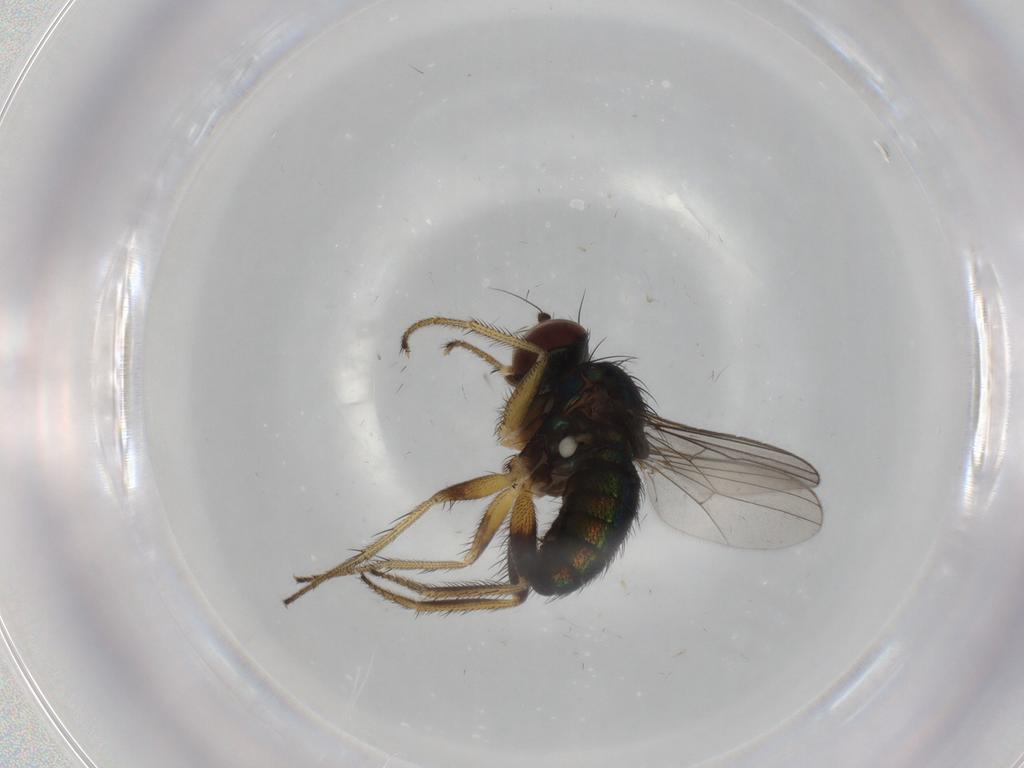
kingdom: Animalia
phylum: Arthropoda
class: Insecta
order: Diptera
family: Dolichopodidae
